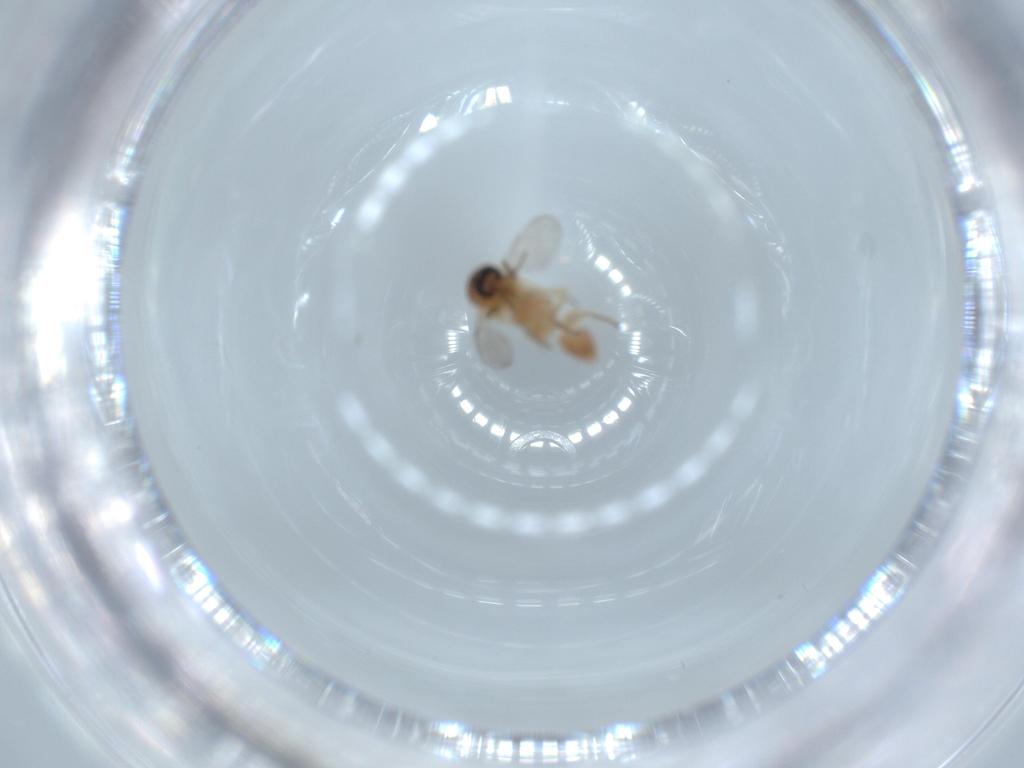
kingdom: Animalia
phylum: Arthropoda
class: Insecta
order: Diptera
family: Ceratopogonidae
